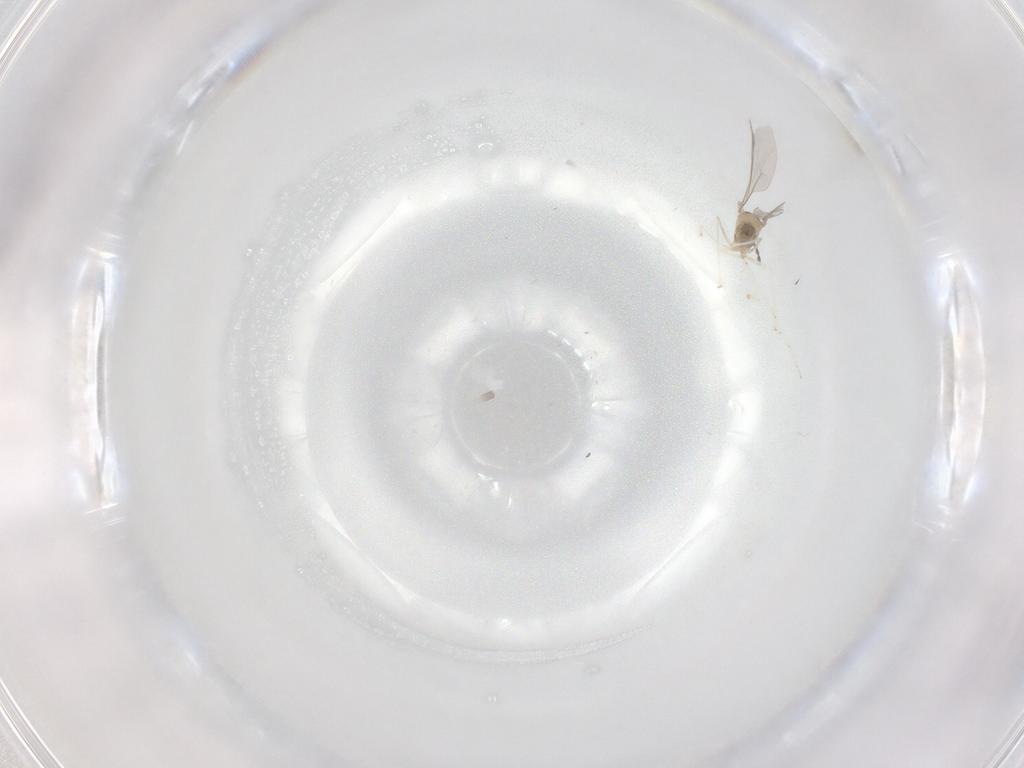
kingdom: Animalia
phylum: Arthropoda
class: Insecta
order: Diptera
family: Cecidomyiidae
